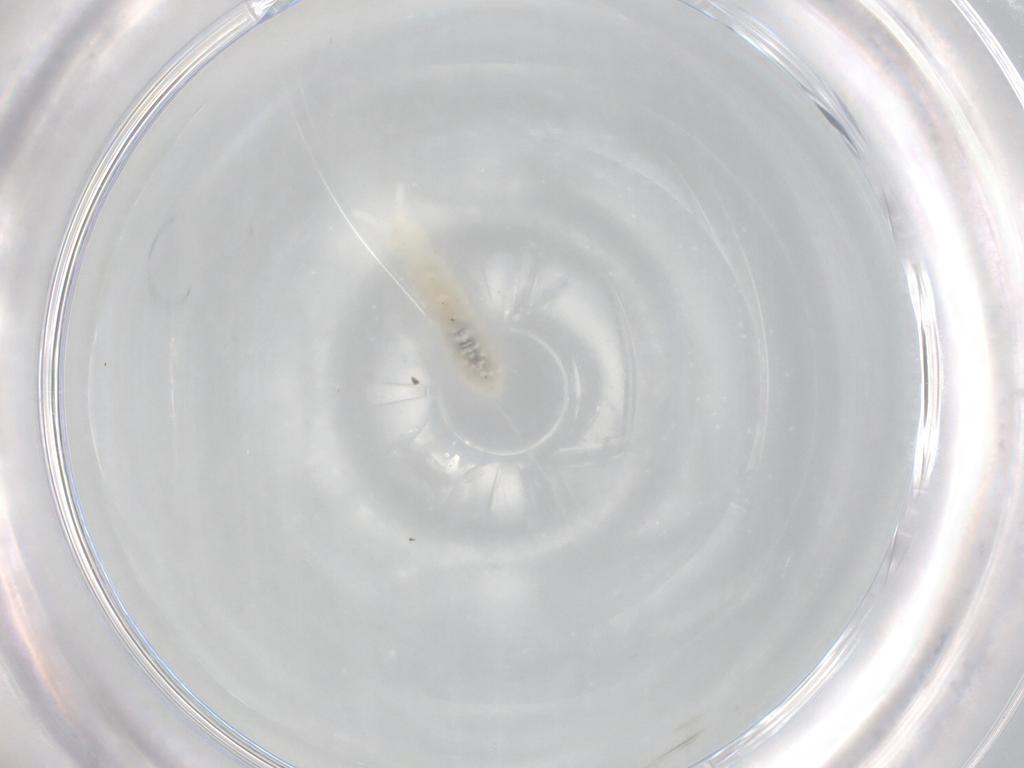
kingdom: Animalia
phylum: Arthropoda
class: Collembola
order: Poduromorpha
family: Onychiuridae
